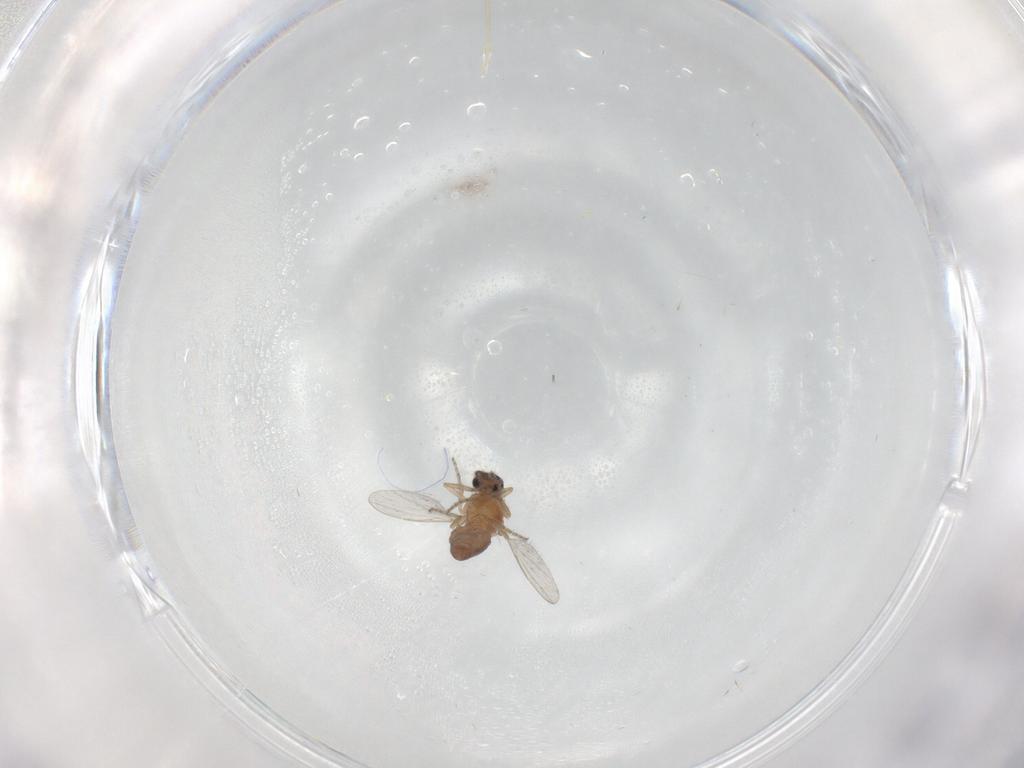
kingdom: Animalia
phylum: Arthropoda
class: Insecta
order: Diptera
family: Ceratopogonidae
